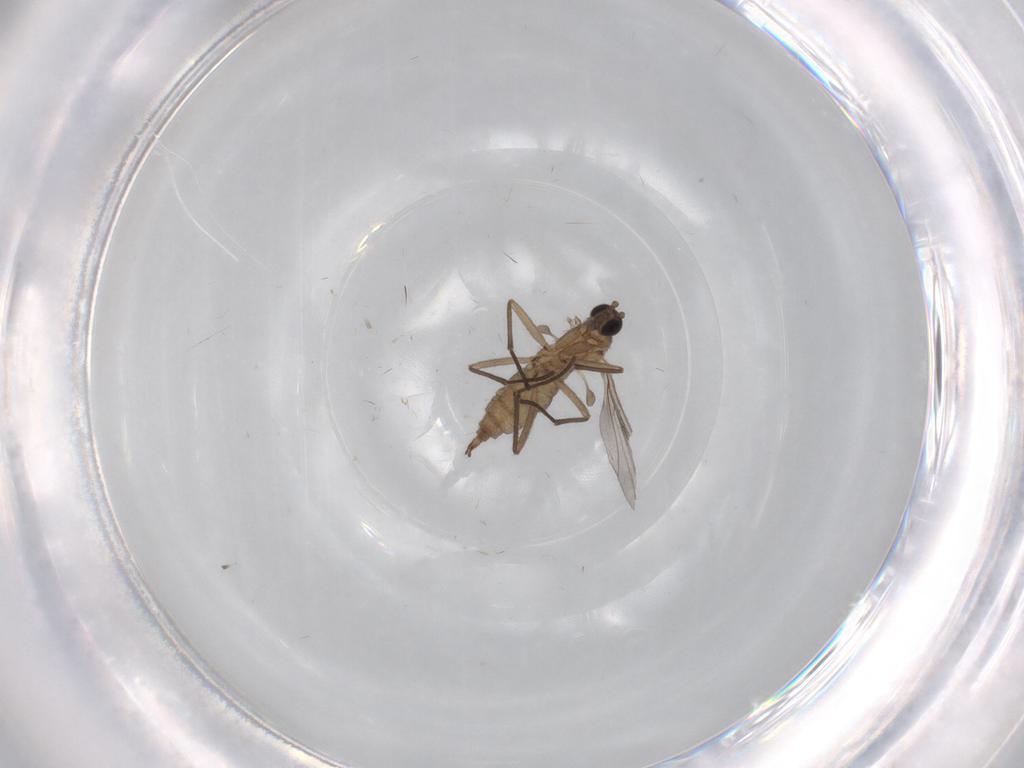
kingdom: Animalia
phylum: Arthropoda
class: Insecta
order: Diptera
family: Sciaridae
